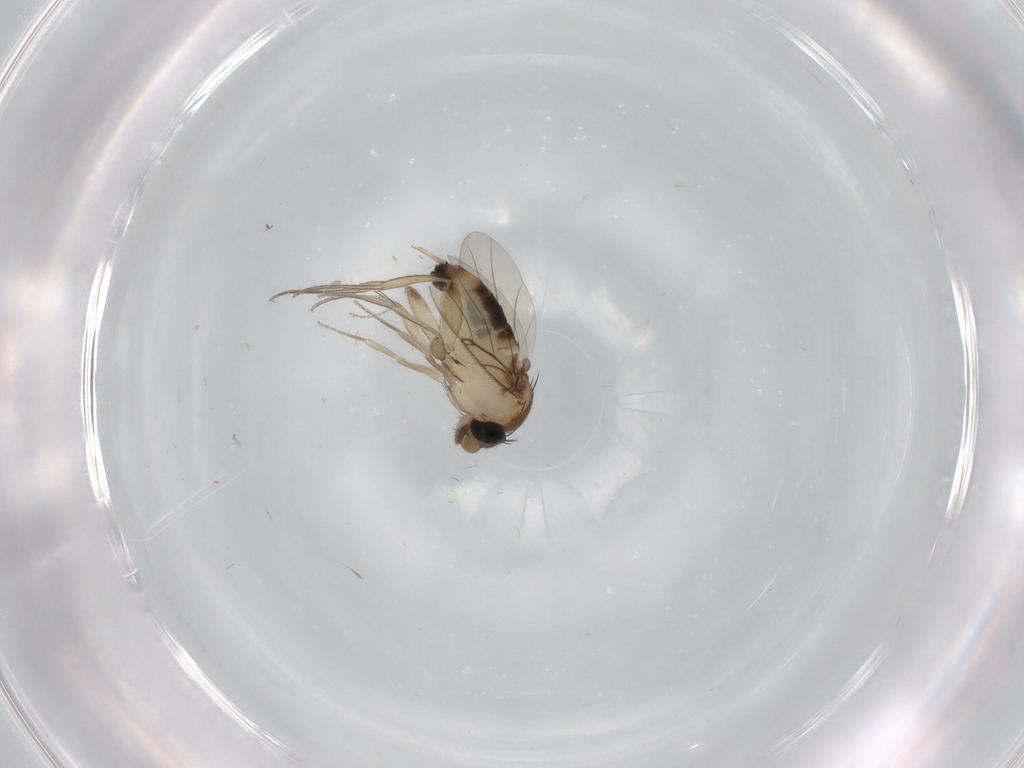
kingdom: Animalia
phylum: Arthropoda
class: Insecta
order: Diptera
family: Phoridae
